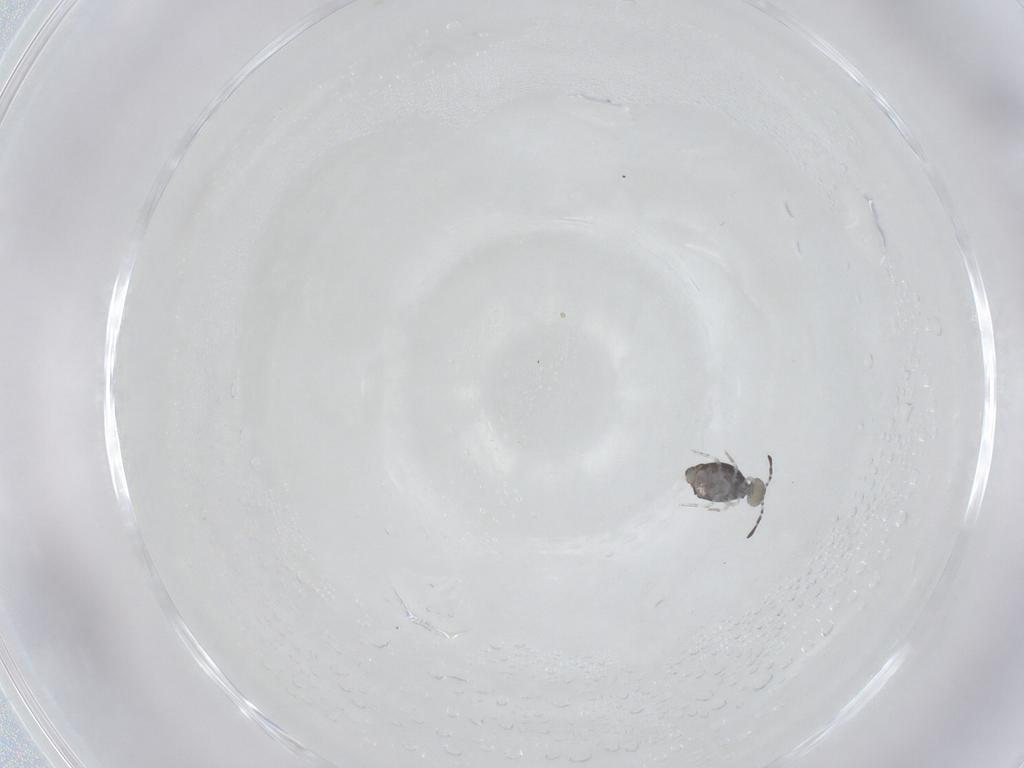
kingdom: Animalia
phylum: Arthropoda
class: Collembola
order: Symphypleona
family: Katiannidae
